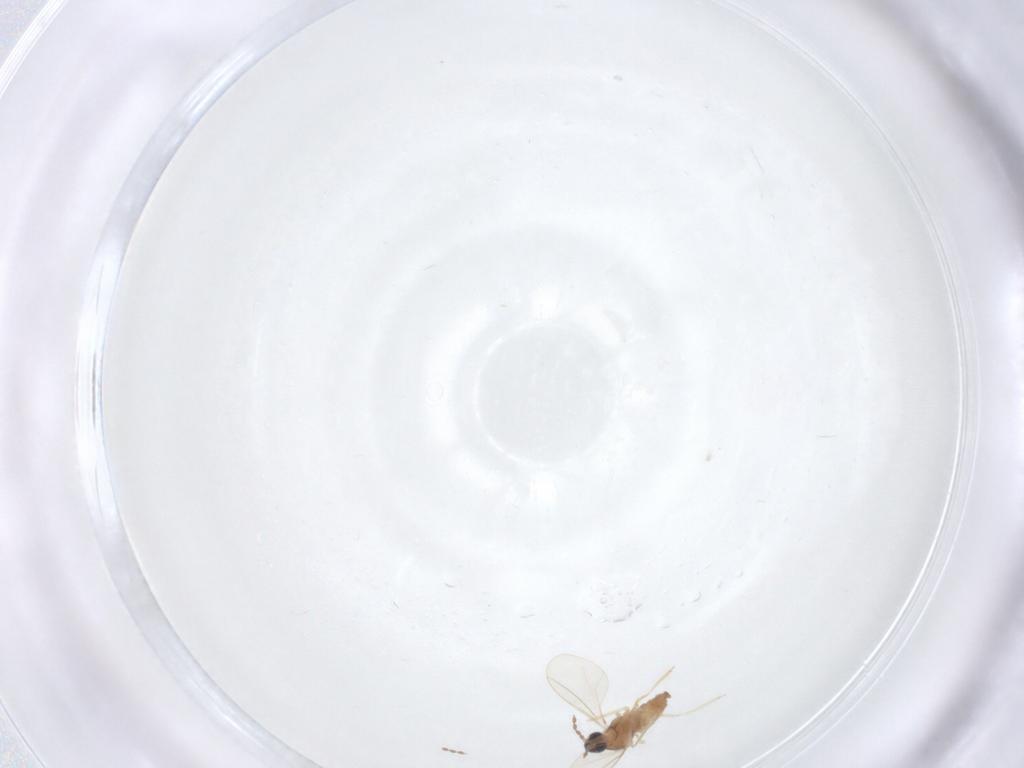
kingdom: Animalia
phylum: Arthropoda
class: Insecta
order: Diptera
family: Cecidomyiidae
